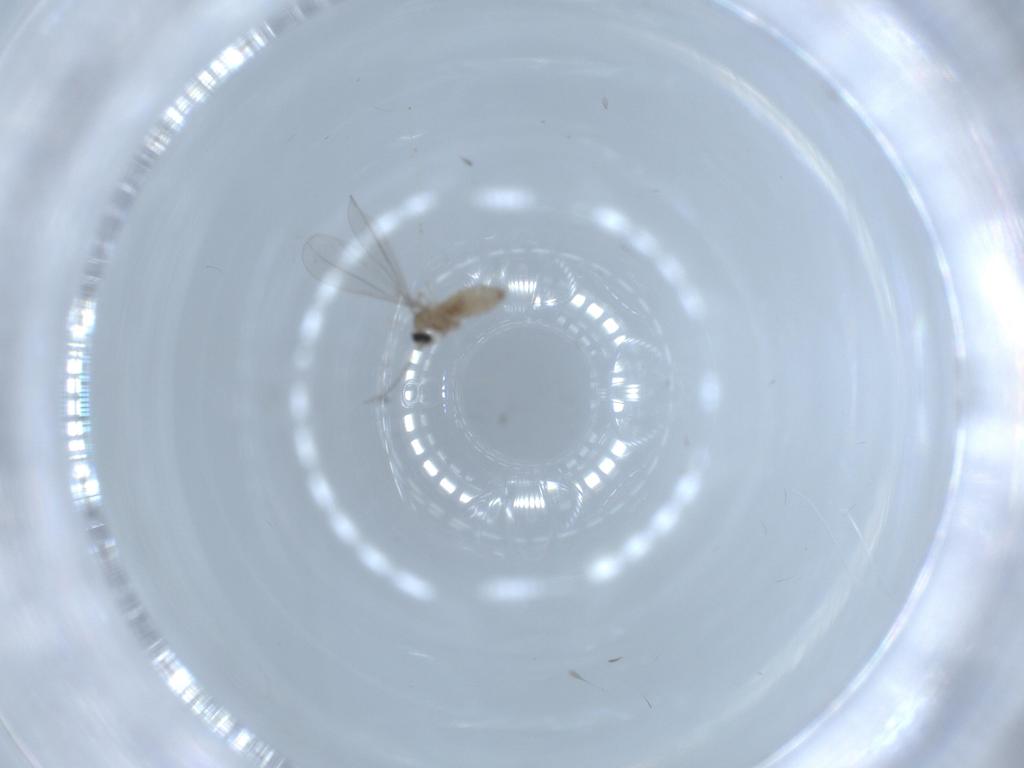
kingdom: Animalia
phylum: Arthropoda
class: Insecta
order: Diptera
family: Cecidomyiidae
